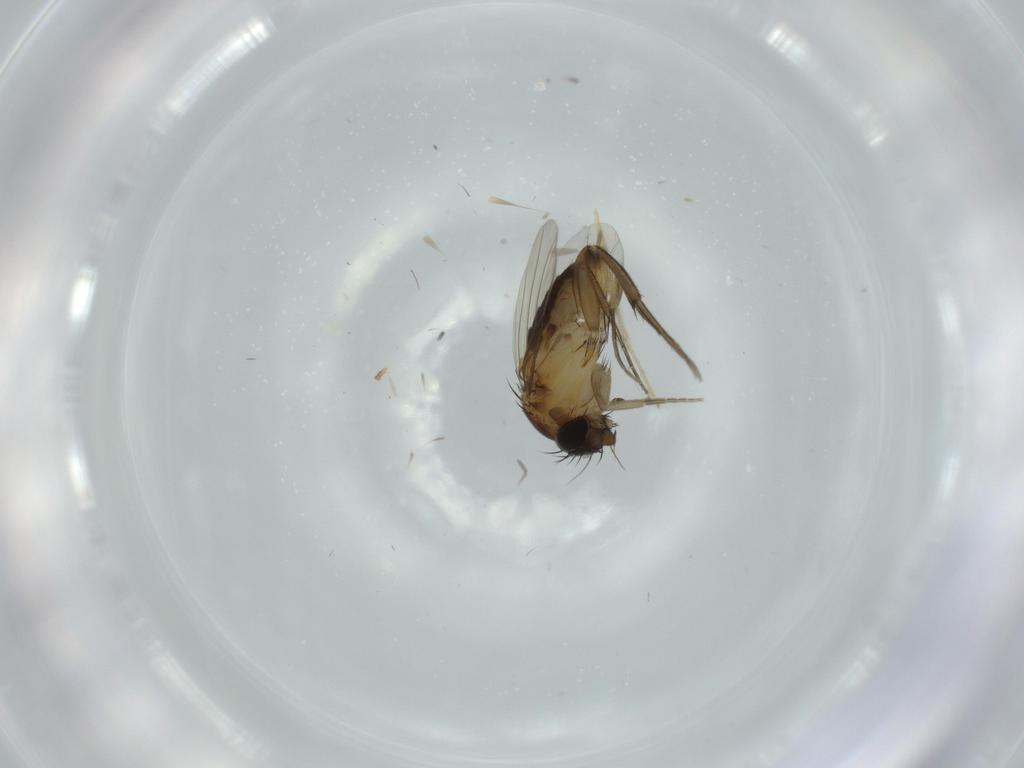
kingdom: Animalia
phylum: Arthropoda
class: Insecta
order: Diptera
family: Phoridae
